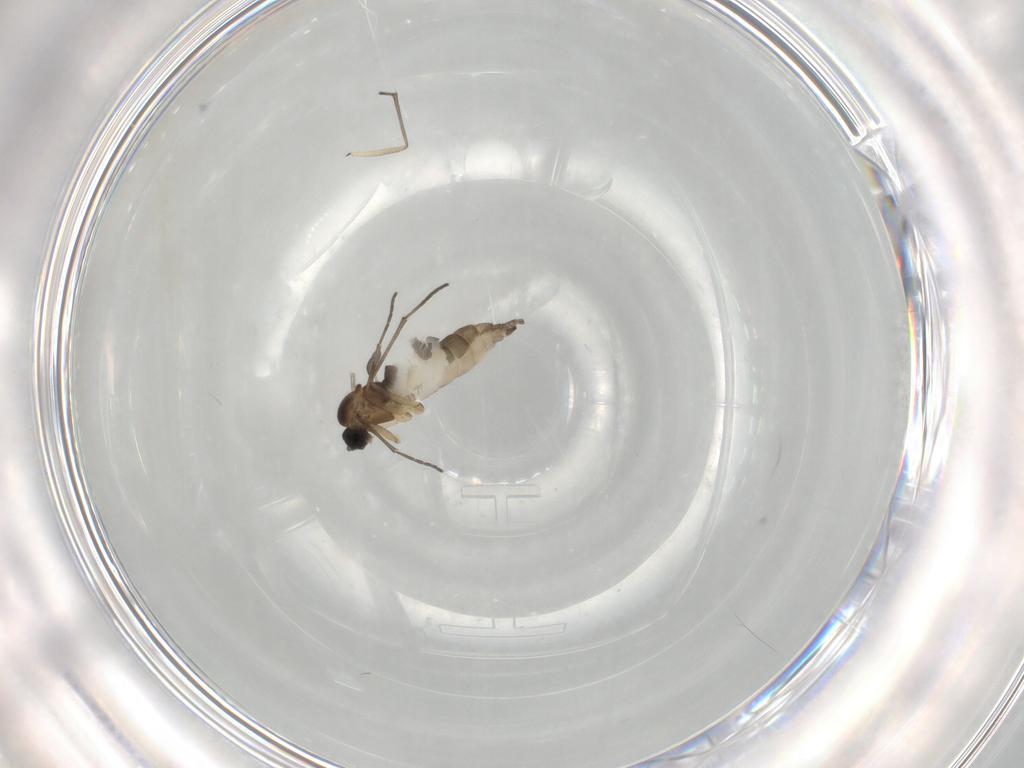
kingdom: Animalia
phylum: Arthropoda
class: Insecta
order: Diptera
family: Sciaridae
